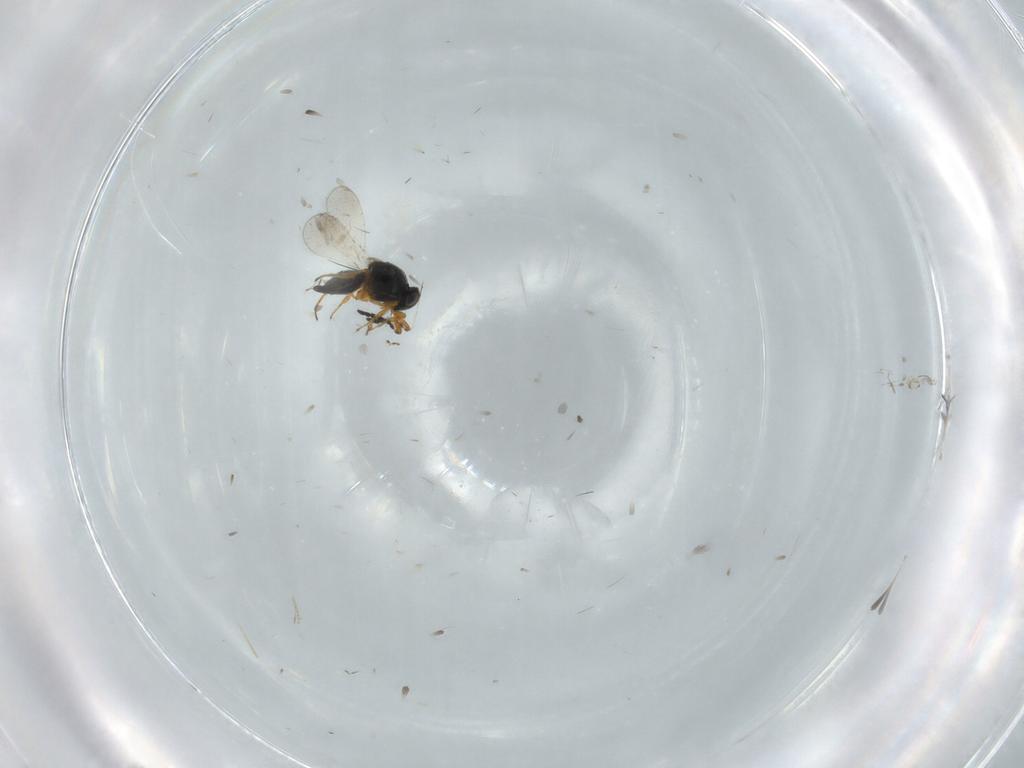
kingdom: Animalia
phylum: Arthropoda
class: Insecta
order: Hymenoptera
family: Platygastridae
